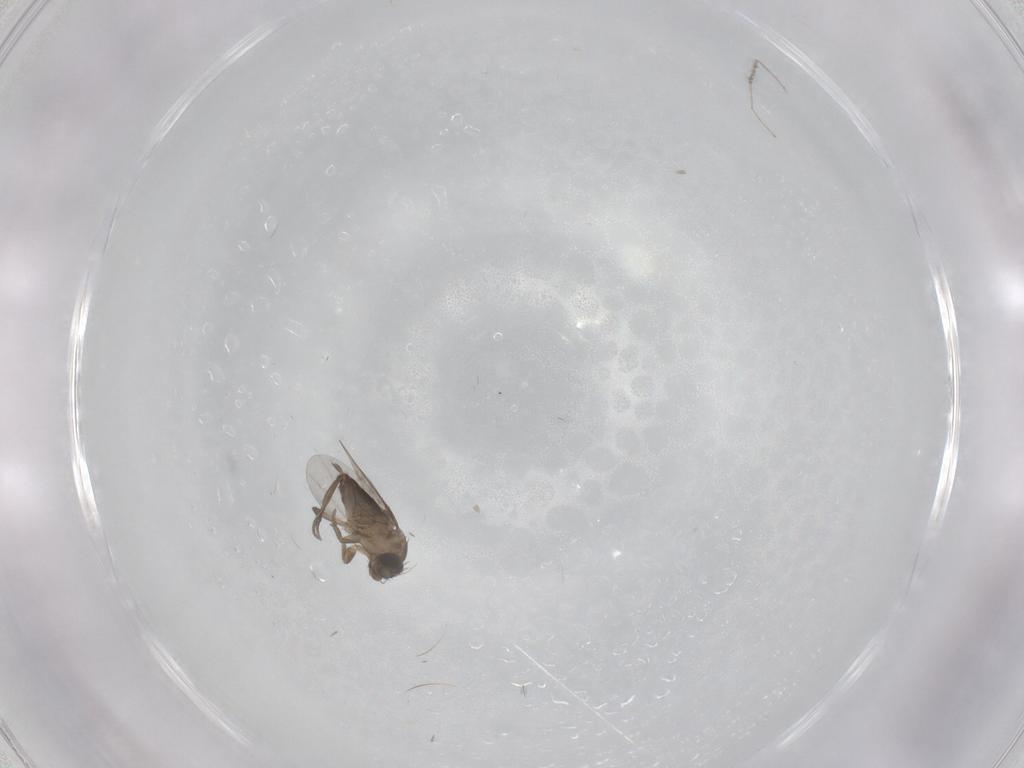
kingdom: Animalia
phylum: Arthropoda
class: Insecta
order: Diptera
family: Phoridae
